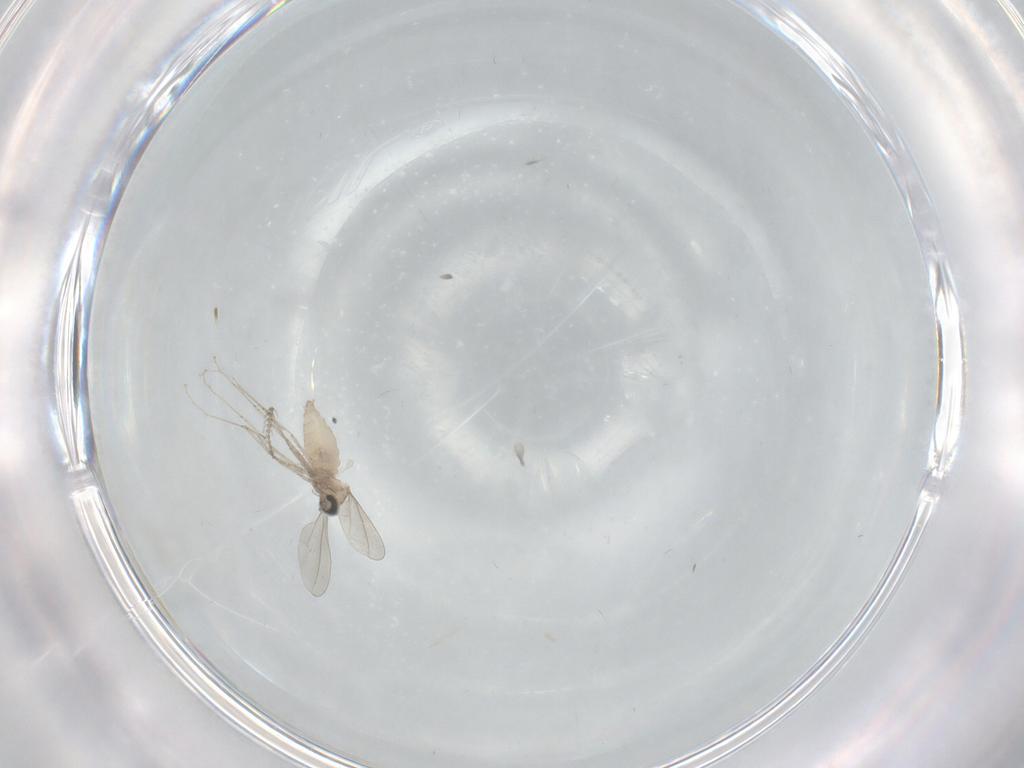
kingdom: Animalia
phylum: Arthropoda
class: Insecta
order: Diptera
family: Cecidomyiidae
